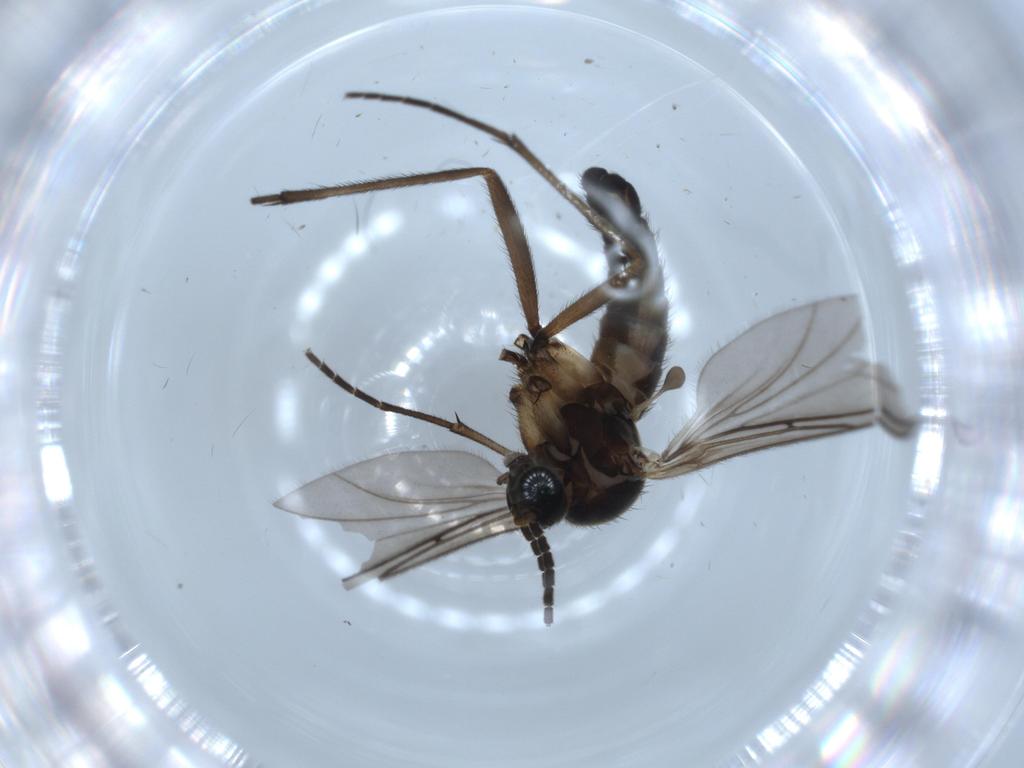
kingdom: Animalia
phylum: Arthropoda
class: Insecta
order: Diptera
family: Sciaridae
